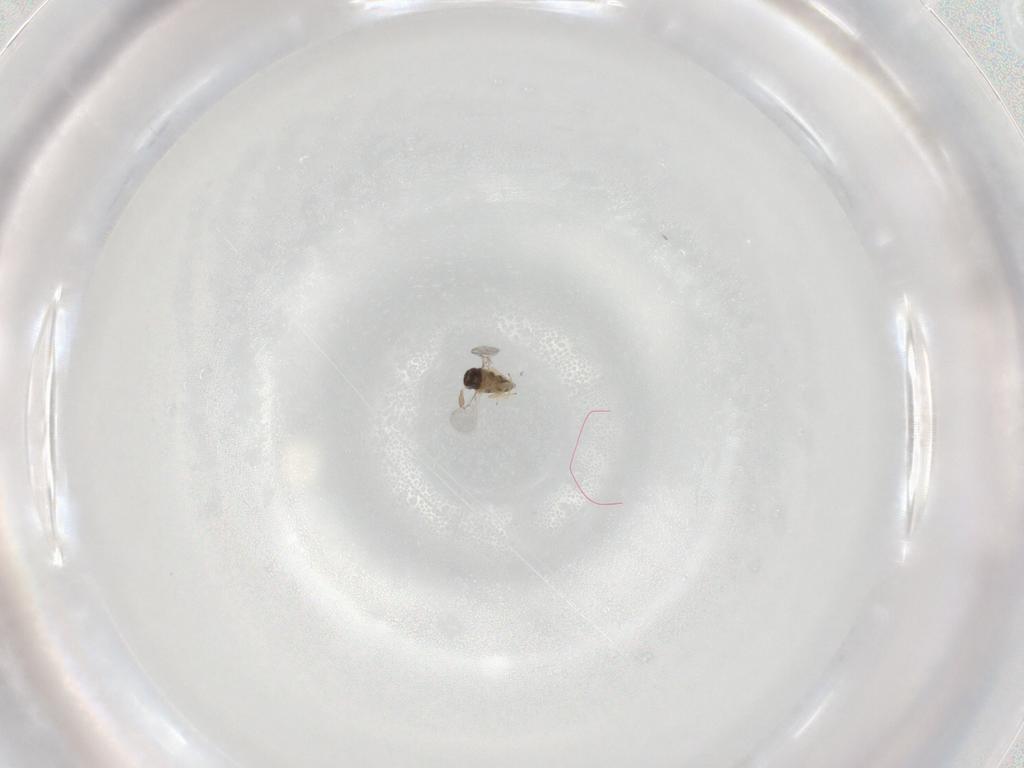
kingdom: Animalia
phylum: Arthropoda
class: Insecta
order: Hymenoptera
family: Encyrtidae
